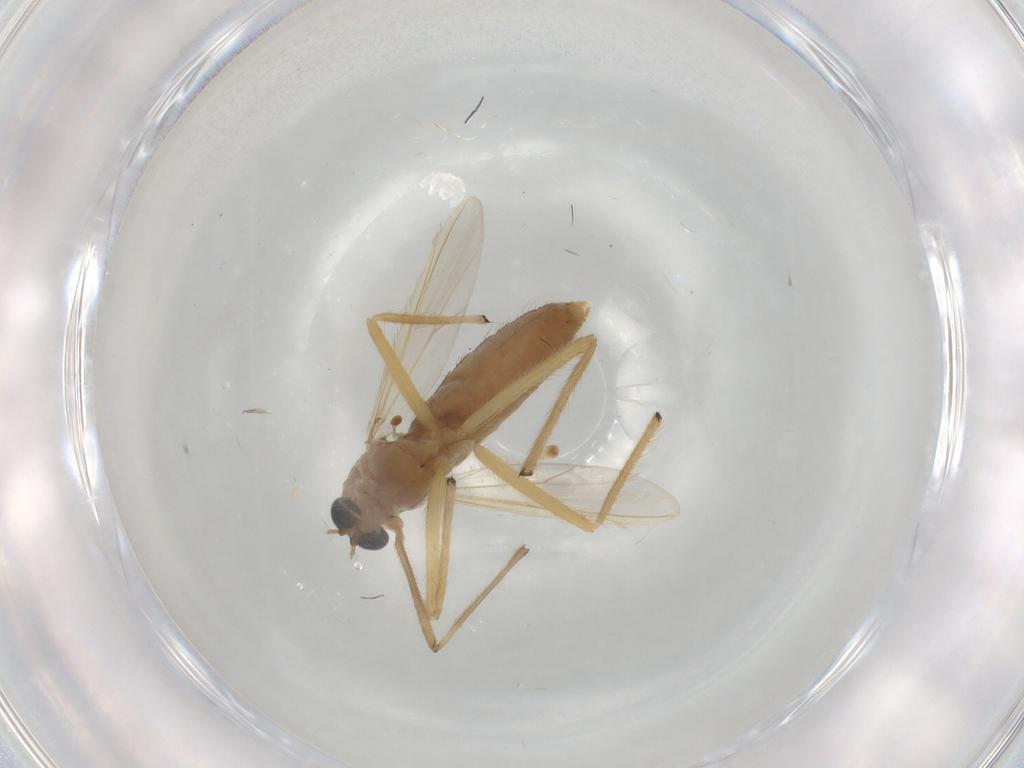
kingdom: Animalia
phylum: Arthropoda
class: Insecta
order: Diptera
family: Chironomidae
